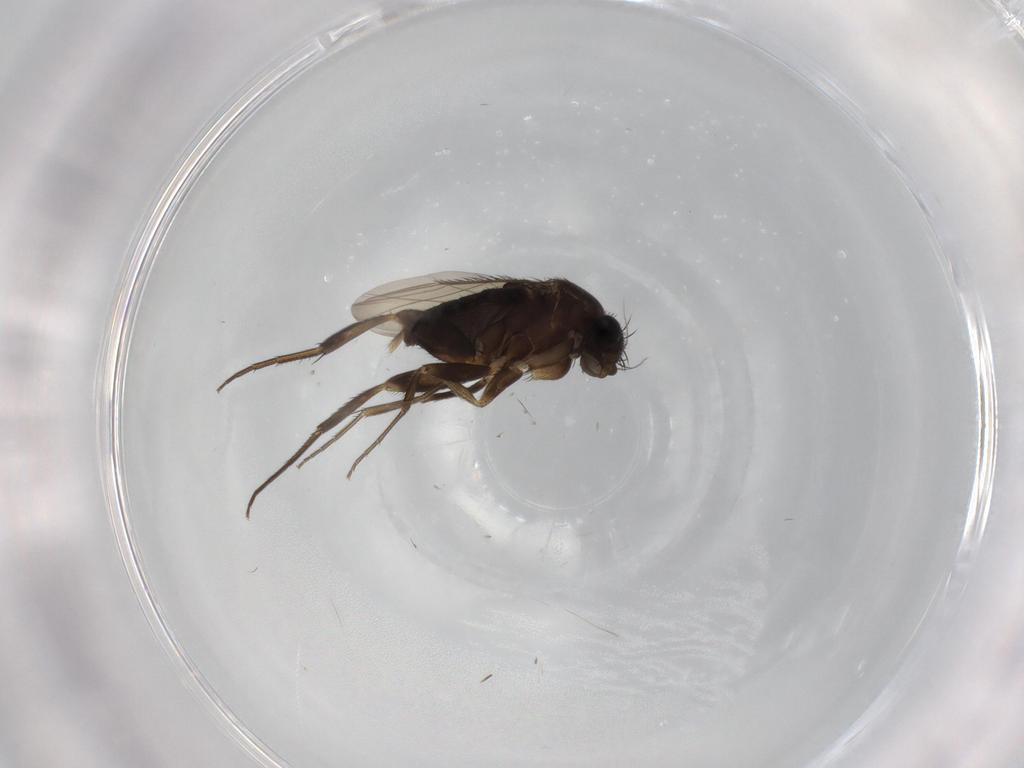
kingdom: Animalia
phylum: Arthropoda
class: Insecta
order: Diptera
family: Phoridae
